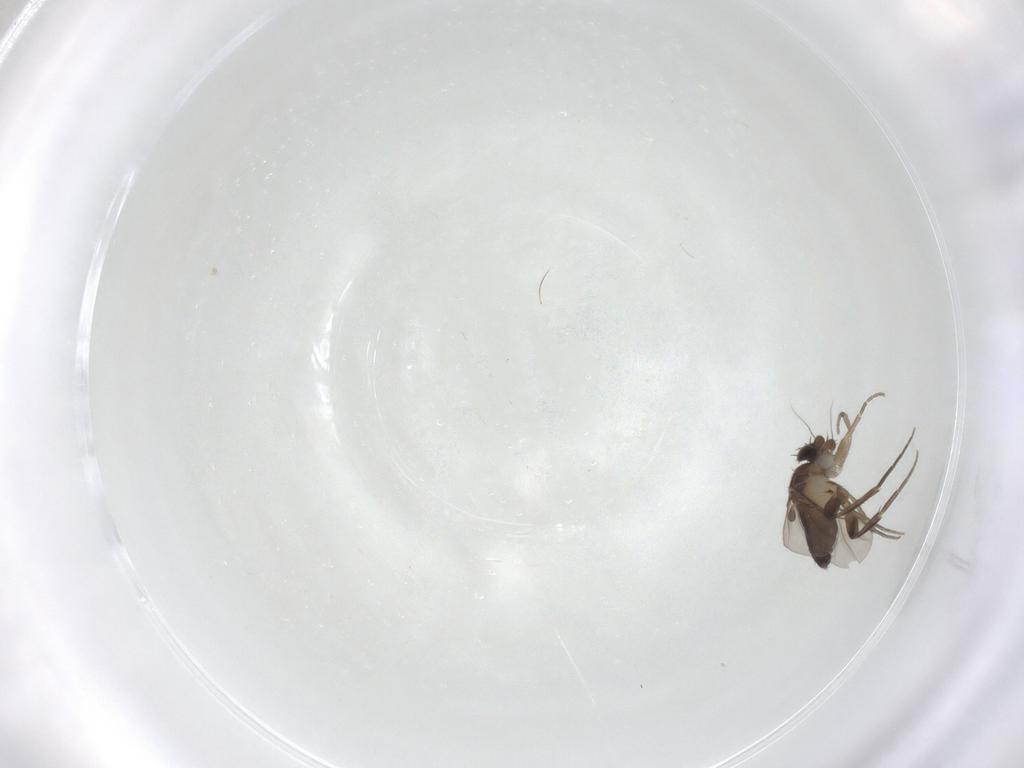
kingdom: Animalia
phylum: Arthropoda
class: Insecta
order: Diptera
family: Phoridae
